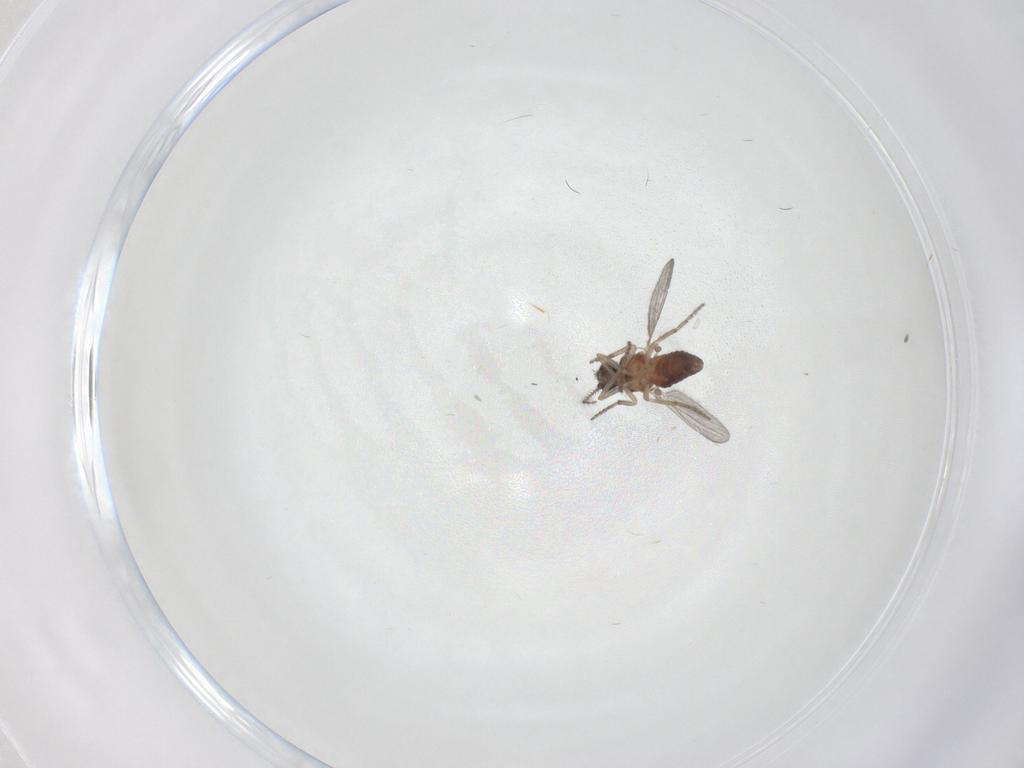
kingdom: Animalia
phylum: Arthropoda
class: Insecta
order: Diptera
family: Ceratopogonidae
